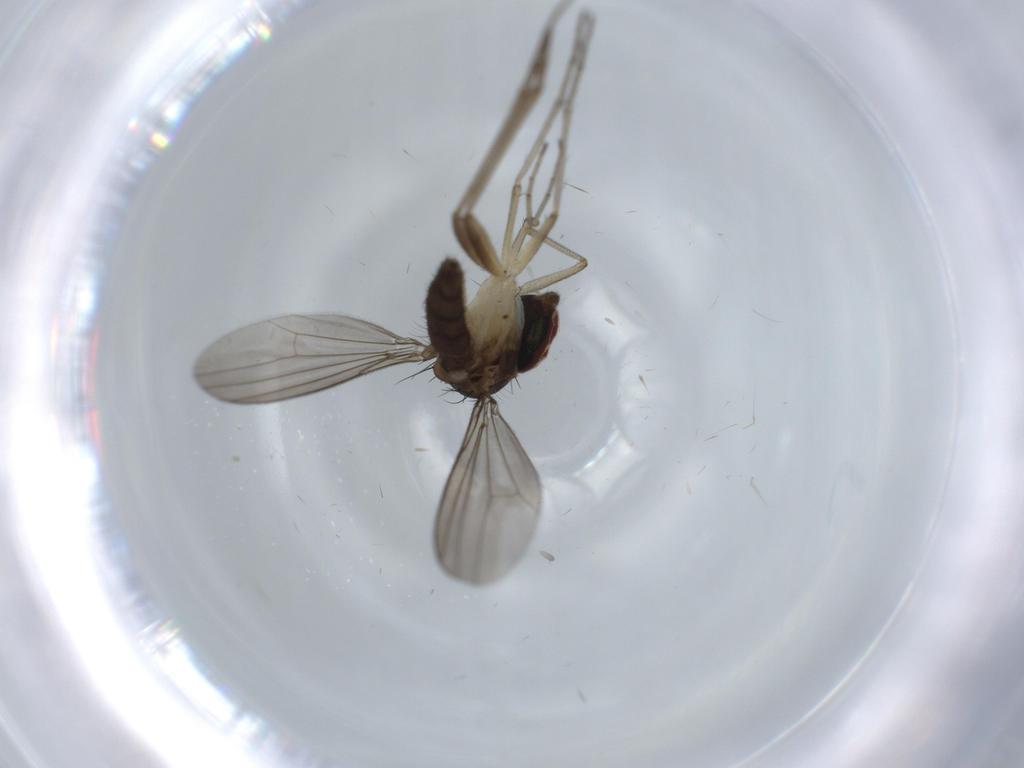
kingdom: Animalia
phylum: Arthropoda
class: Insecta
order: Diptera
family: Dolichopodidae
